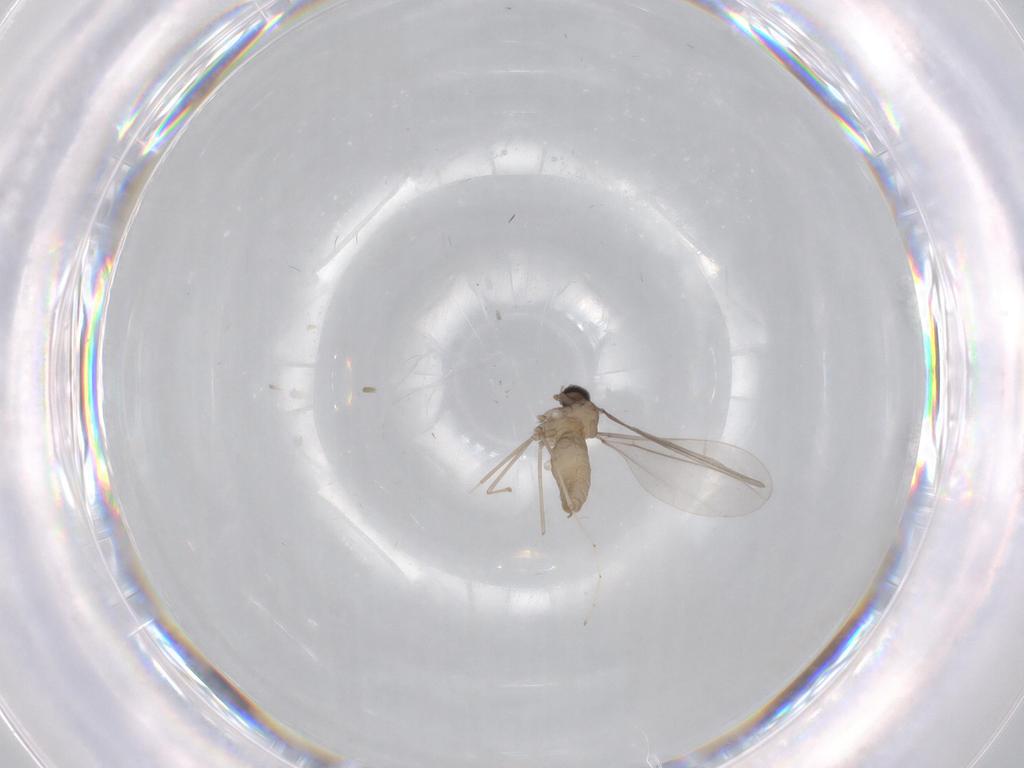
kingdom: Animalia
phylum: Arthropoda
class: Insecta
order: Diptera
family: Cecidomyiidae
